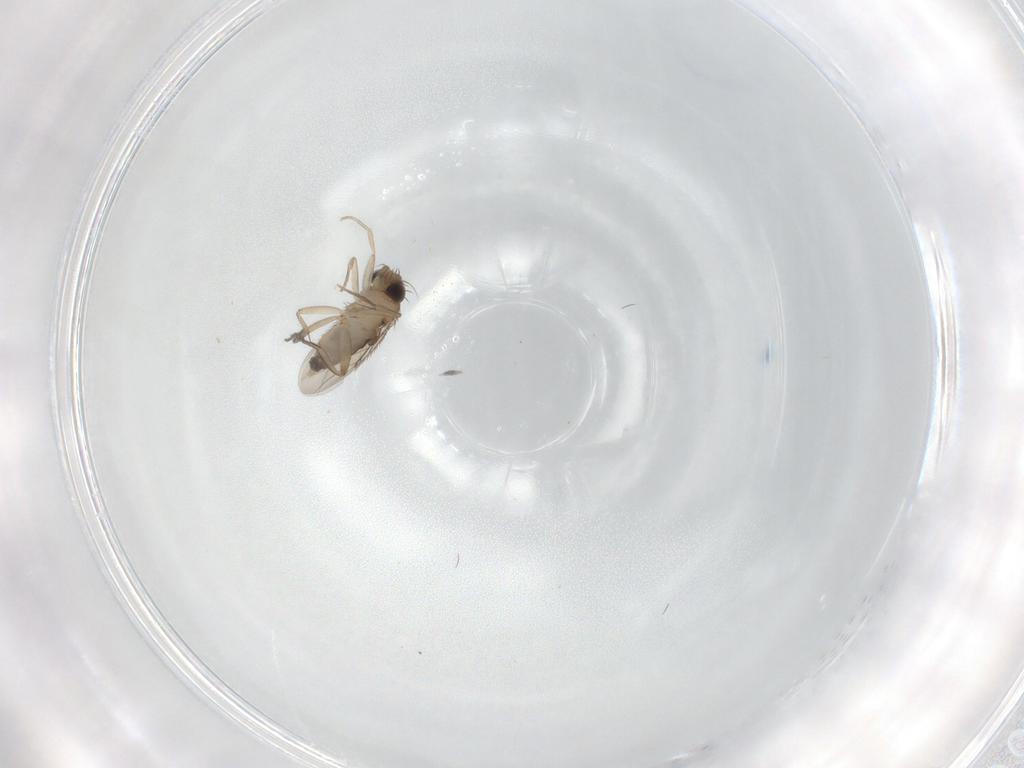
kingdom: Animalia
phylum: Arthropoda
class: Insecta
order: Diptera
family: Phoridae
